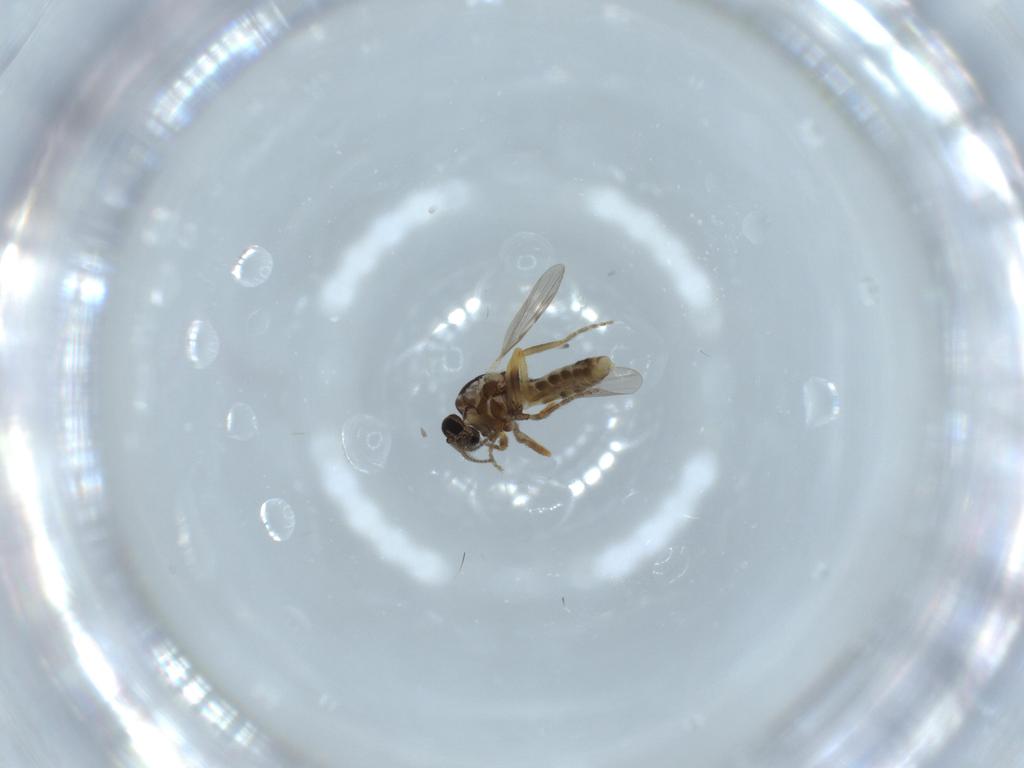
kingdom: Animalia
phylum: Arthropoda
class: Insecta
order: Diptera
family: Ceratopogonidae
